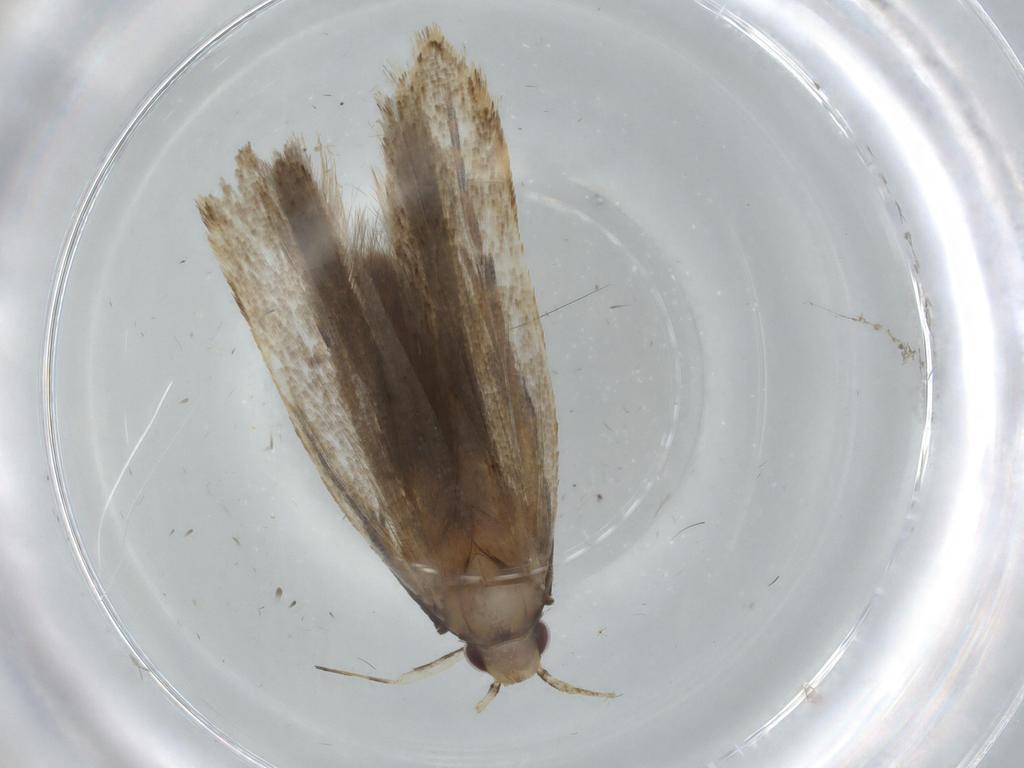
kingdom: Animalia
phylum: Arthropoda
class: Insecta
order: Lepidoptera
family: Gelechiidae
